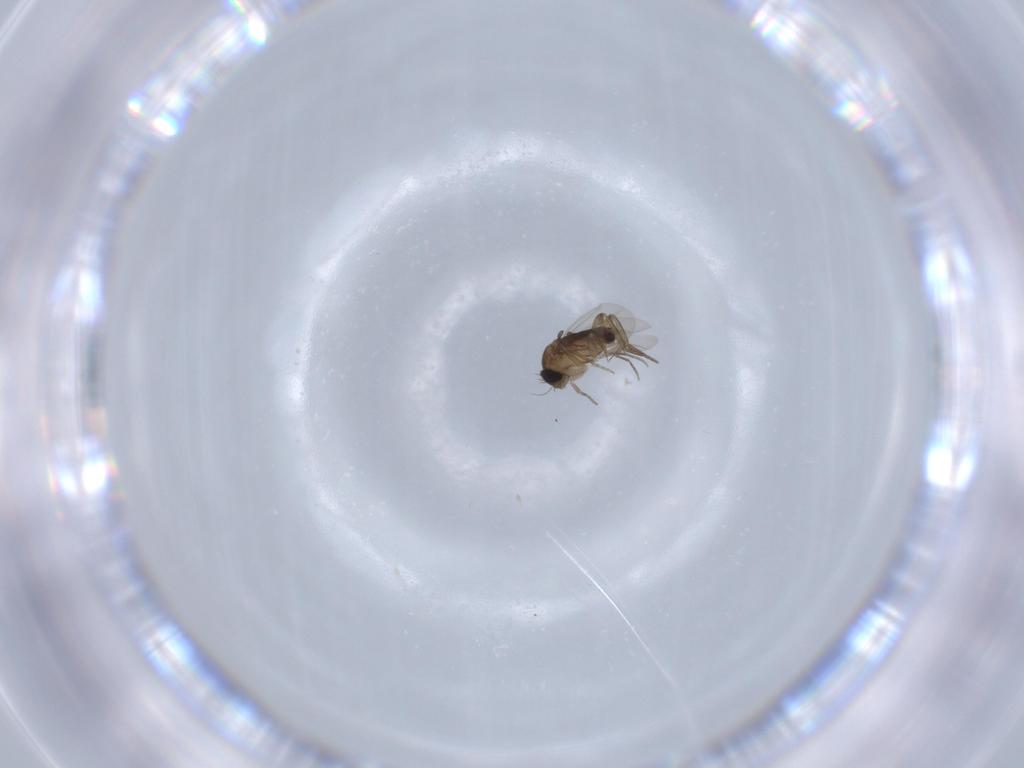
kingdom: Animalia
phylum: Arthropoda
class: Insecta
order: Diptera
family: Phoridae
